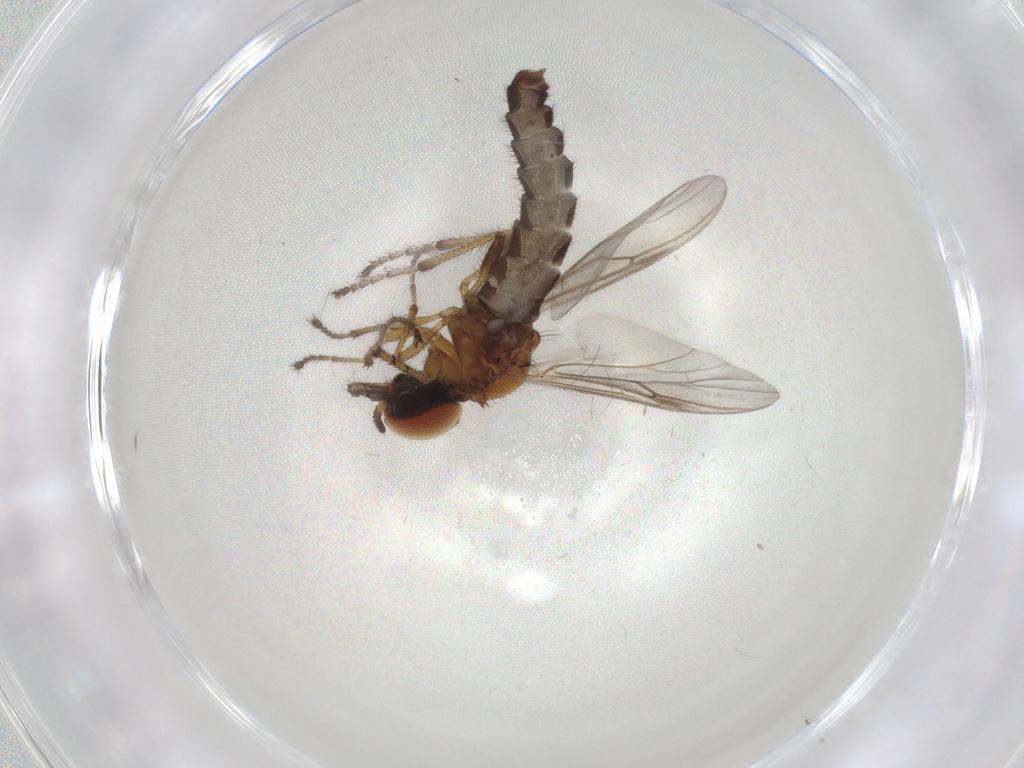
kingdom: Animalia
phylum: Arthropoda
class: Insecta
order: Diptera
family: Bibionidae
